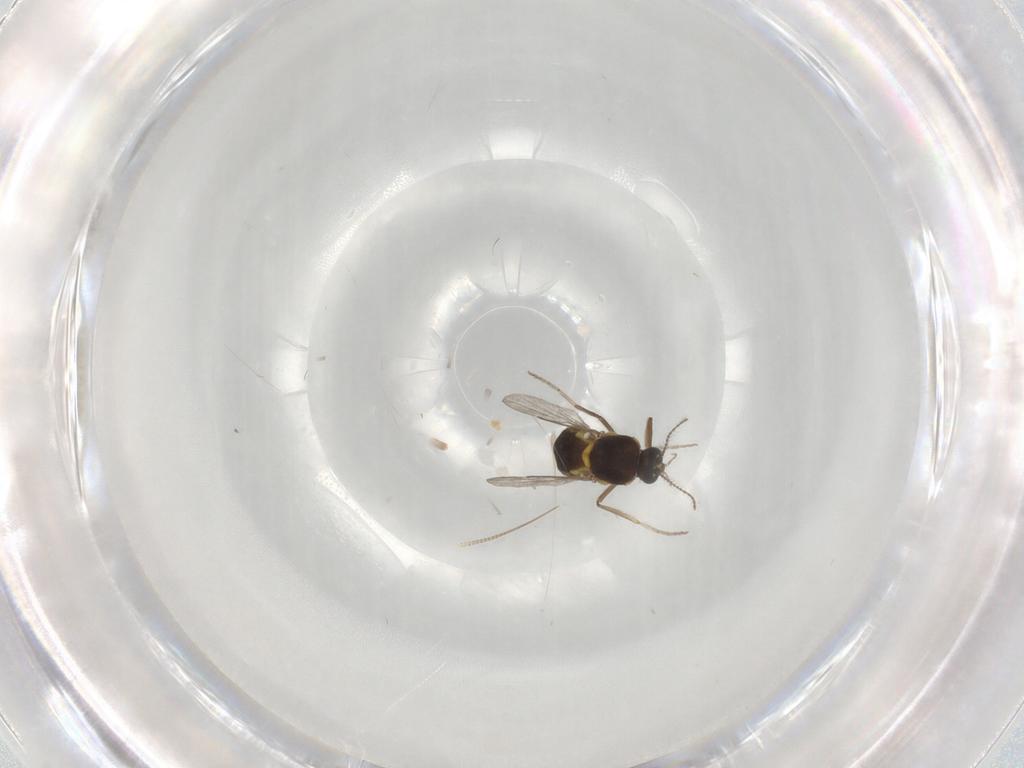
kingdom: Animalia
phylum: Arthropoda
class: Insecta
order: Diptera
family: Ceratopogonidae
